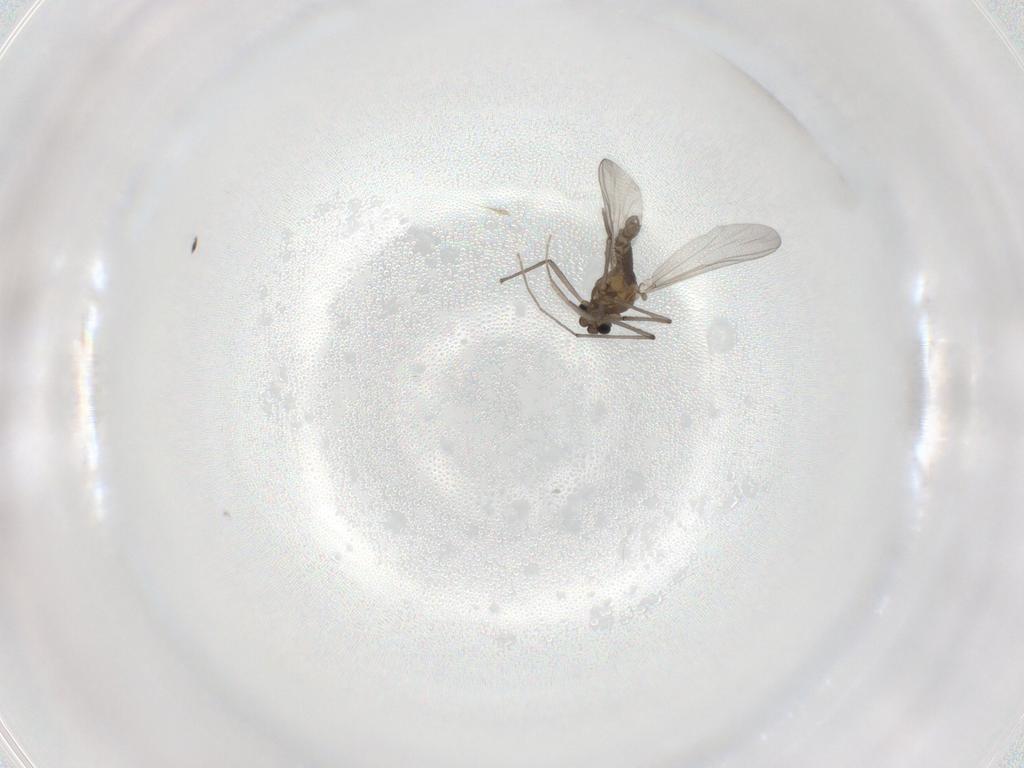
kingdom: Animalia
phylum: Arthropoda
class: Insecta
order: Diptera
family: Chironomidae
